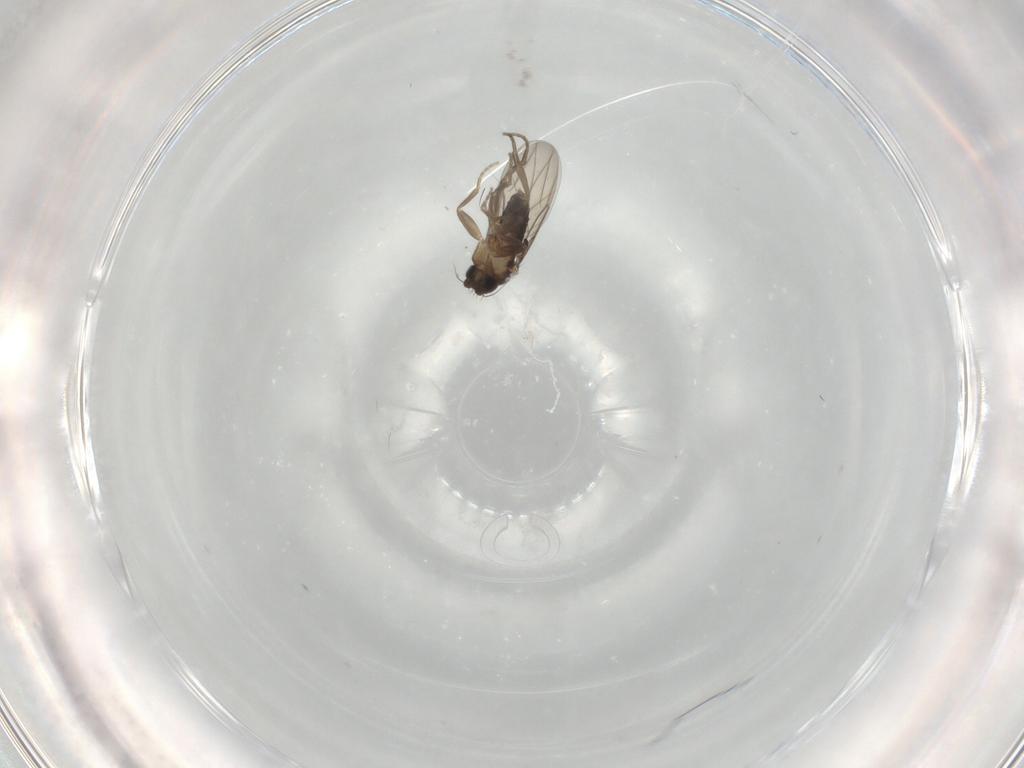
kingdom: Animalia
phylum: Arthropoda
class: Insecta
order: Diptera
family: Phoridae
